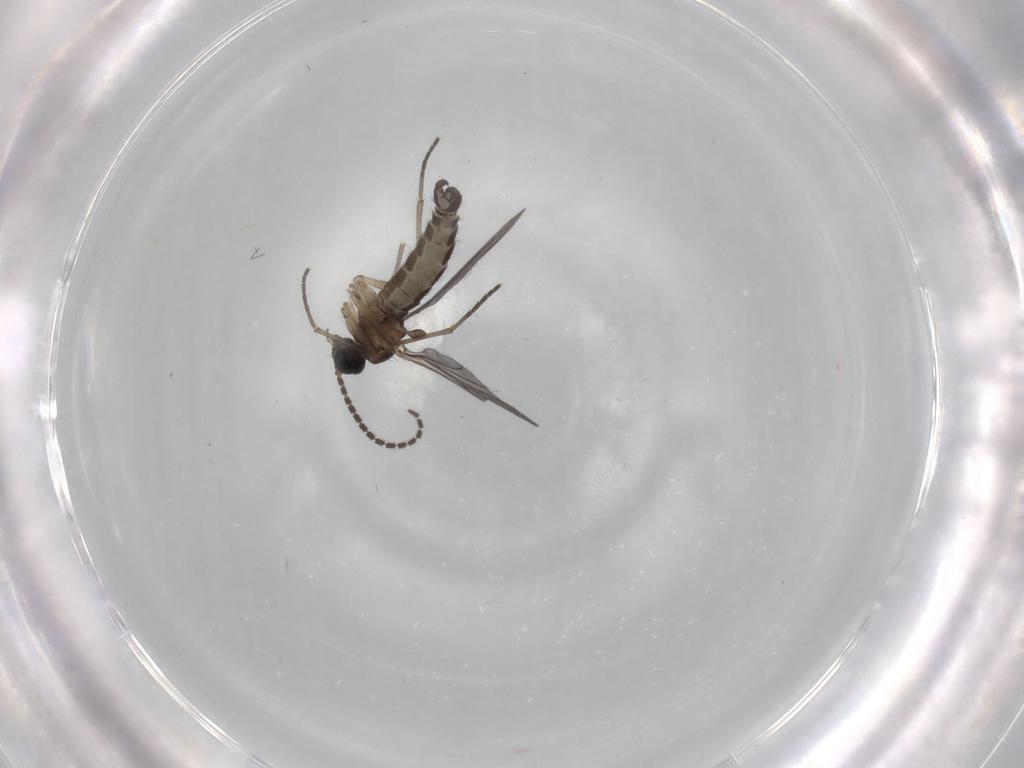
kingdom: Animalia
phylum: Arthropoda
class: Insecta
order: Diptera
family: Sciaridae
